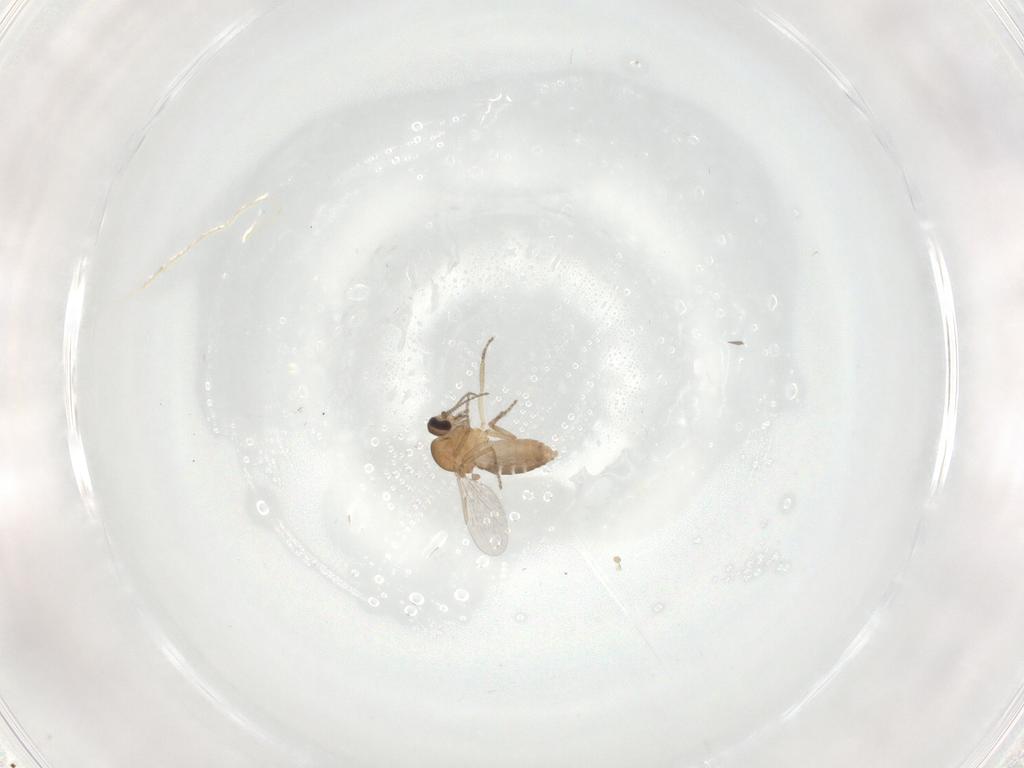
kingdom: Animalia
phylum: Arthropoda
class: Insecta
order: Diptera
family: Ceratopogonidae
